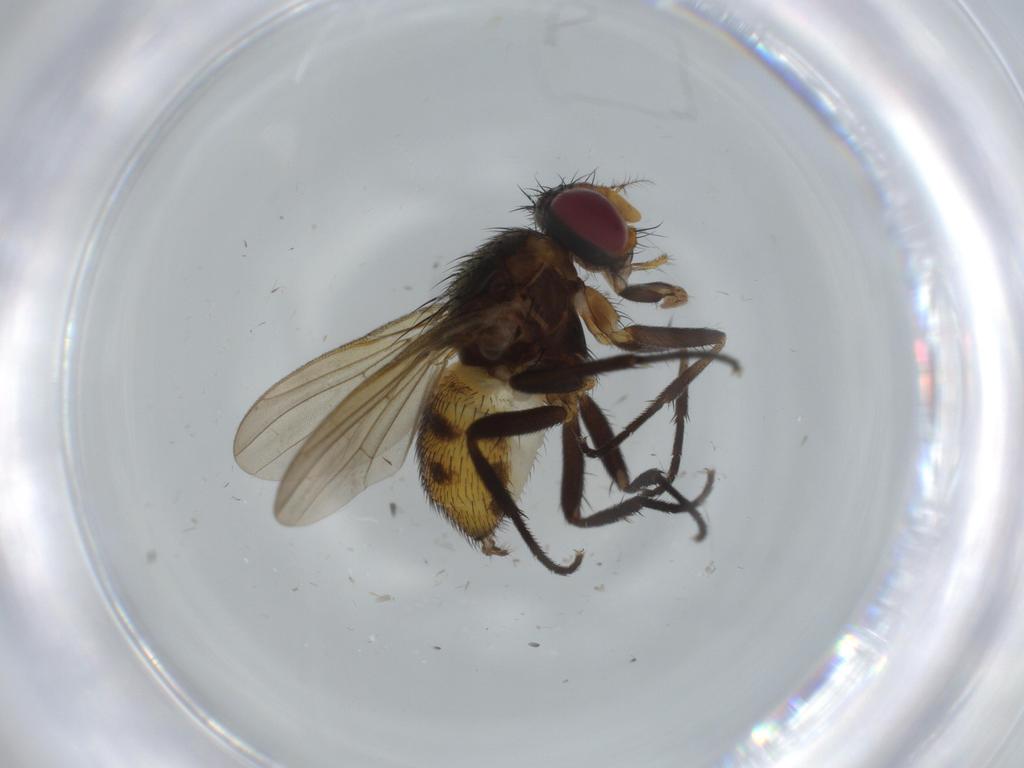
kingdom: Animalia
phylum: Arthropoda
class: Insecta
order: Diptera
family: Anthomyiidae
